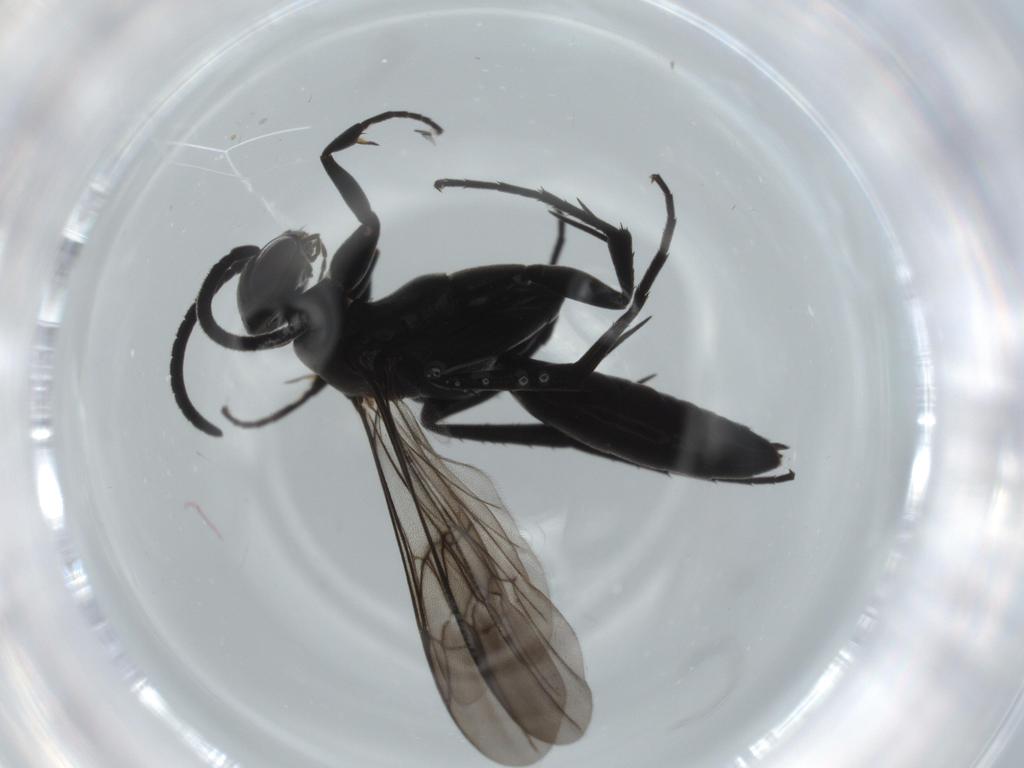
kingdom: Animalia
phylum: Arthropoda
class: Insecta
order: Hymenoptera
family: Pompilidae
